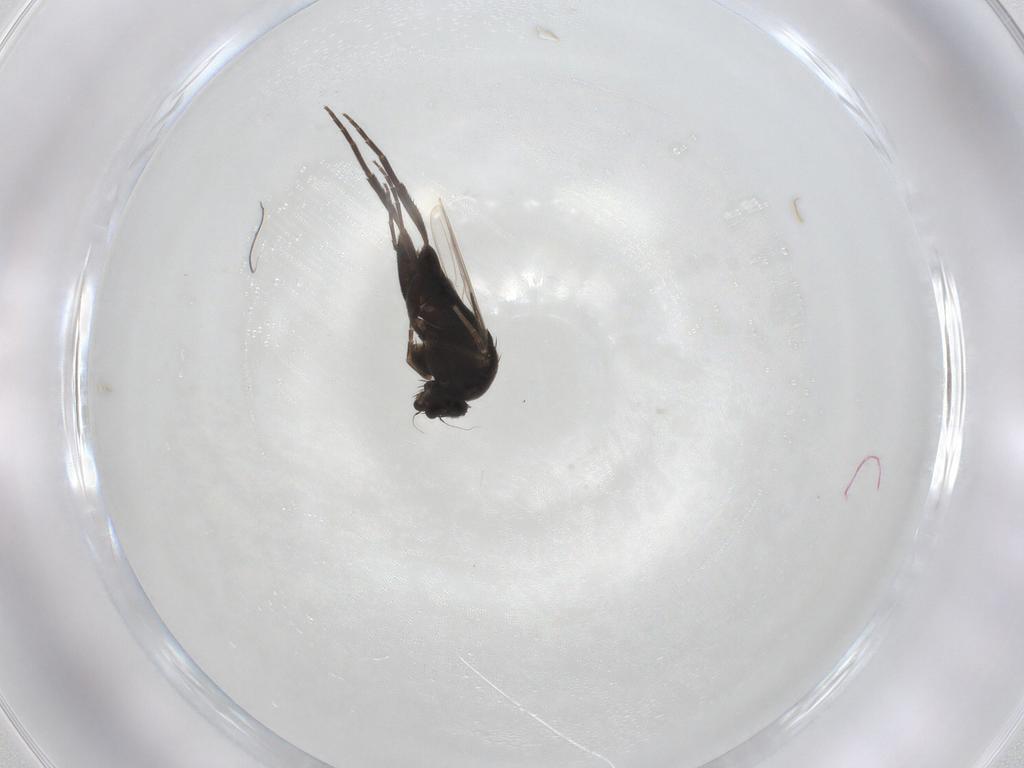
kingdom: Animalia
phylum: Arthropoda
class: Insecta
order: Diptera
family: Phoridae
